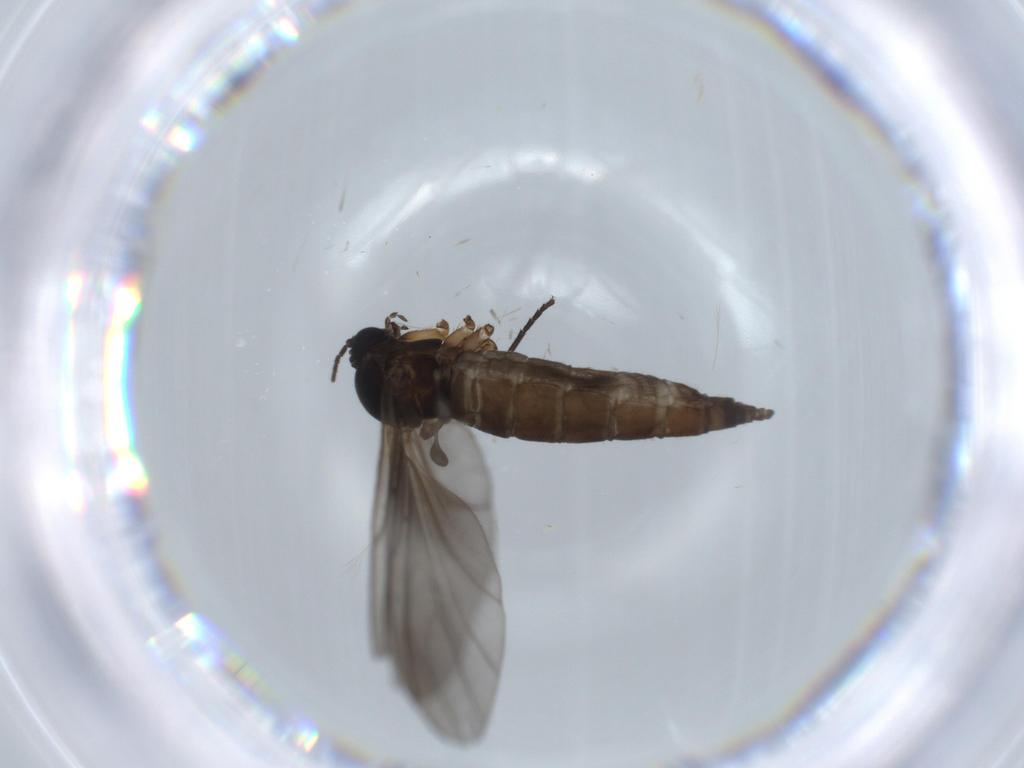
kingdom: Animalia
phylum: Arthropoda
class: Insecta
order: Diptera
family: Sciaridae
